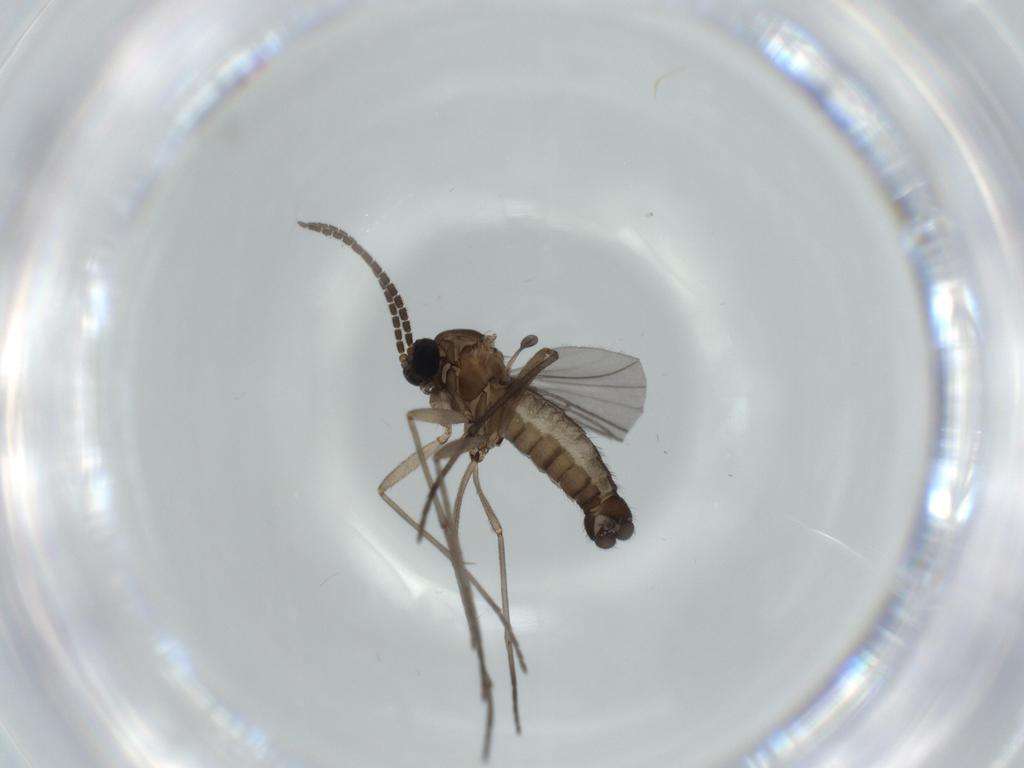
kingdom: Animalia
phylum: Arthropoda
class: Insecta
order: Diptera
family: Sciaridae
